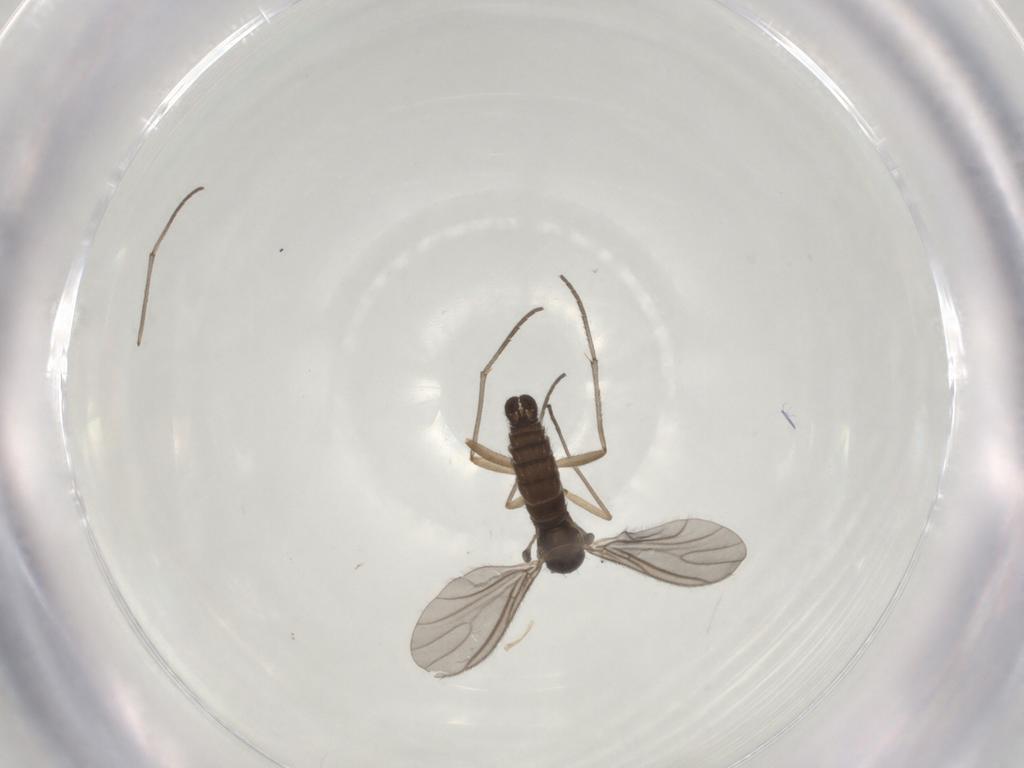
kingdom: Animalia
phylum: Arthropoda
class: Insecta
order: Diptera
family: Sciaridae
